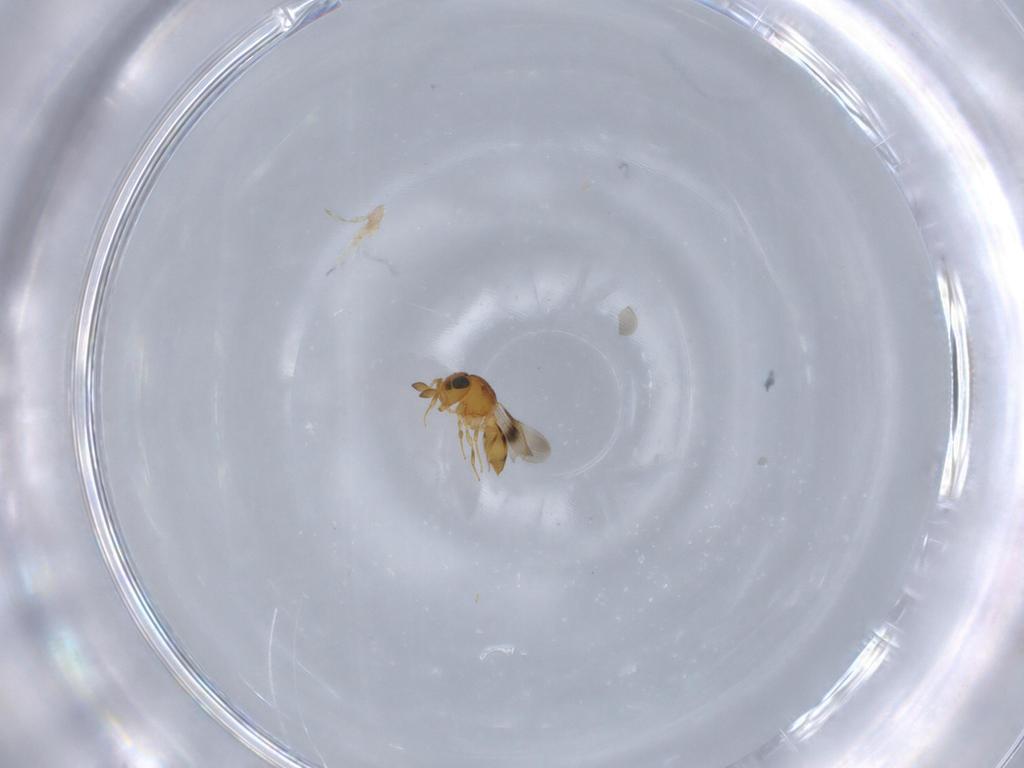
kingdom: Animalia
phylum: Arthropoda
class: Insecta
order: Hymenoptera
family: Scelionidae
